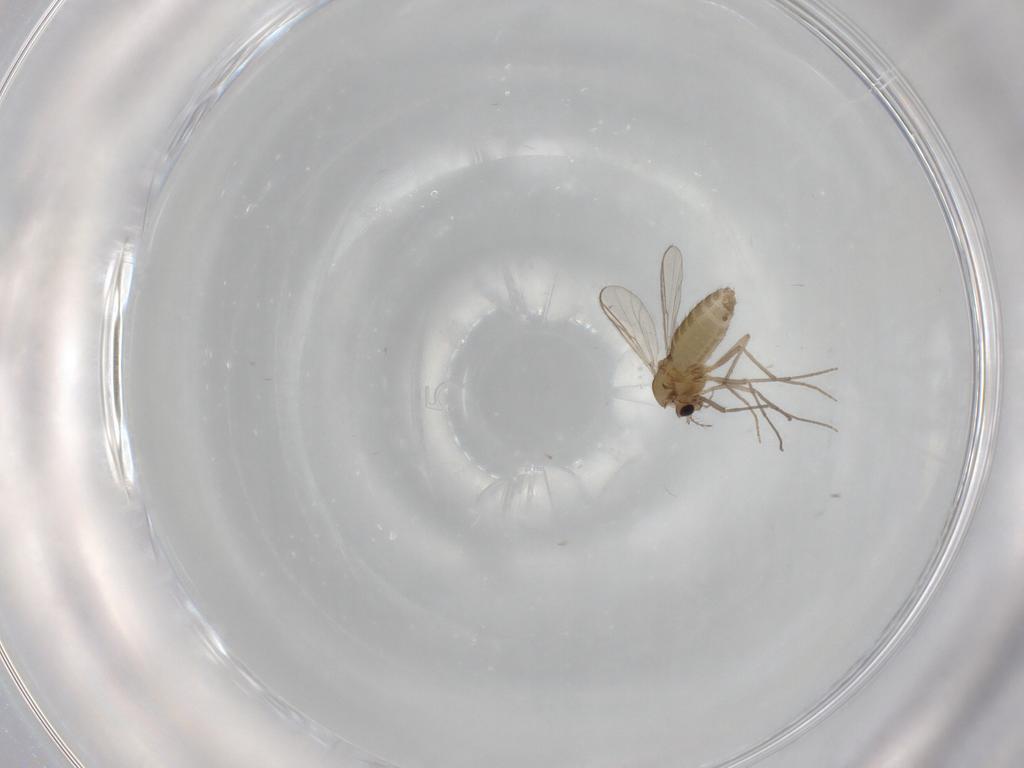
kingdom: Animalia
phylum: Arthropoda
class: Insecta
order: Diptera
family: Chironomidae
